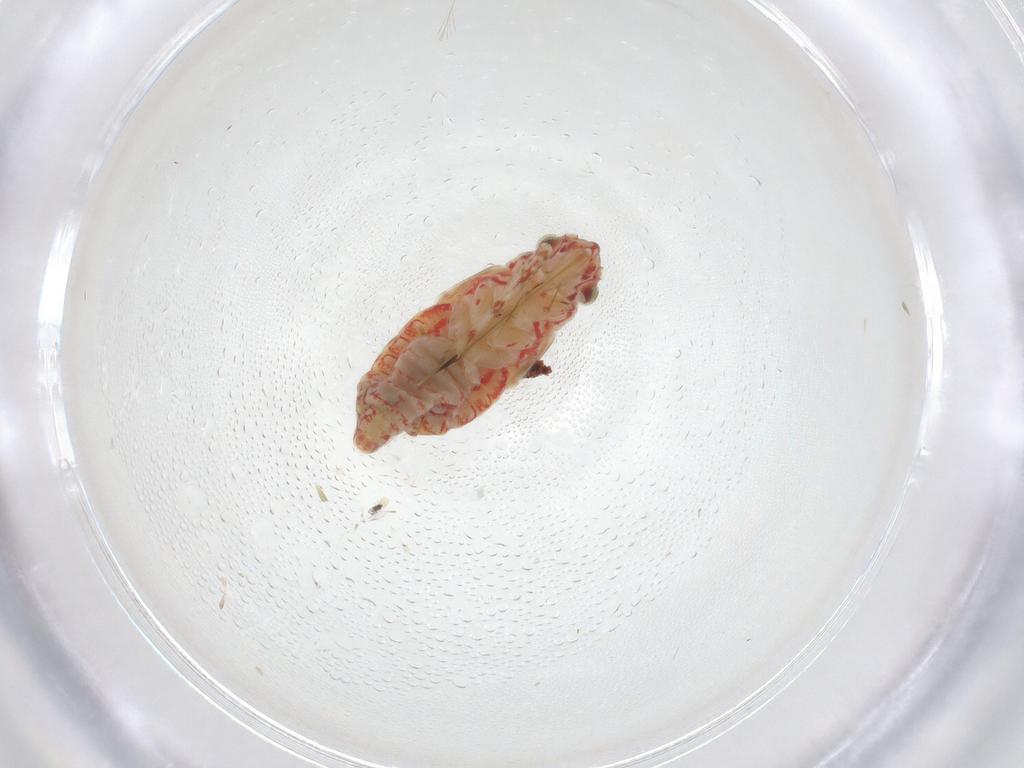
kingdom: Animalia
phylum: Arthropoda
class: Insecta
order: Hemiptera
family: Miridae
